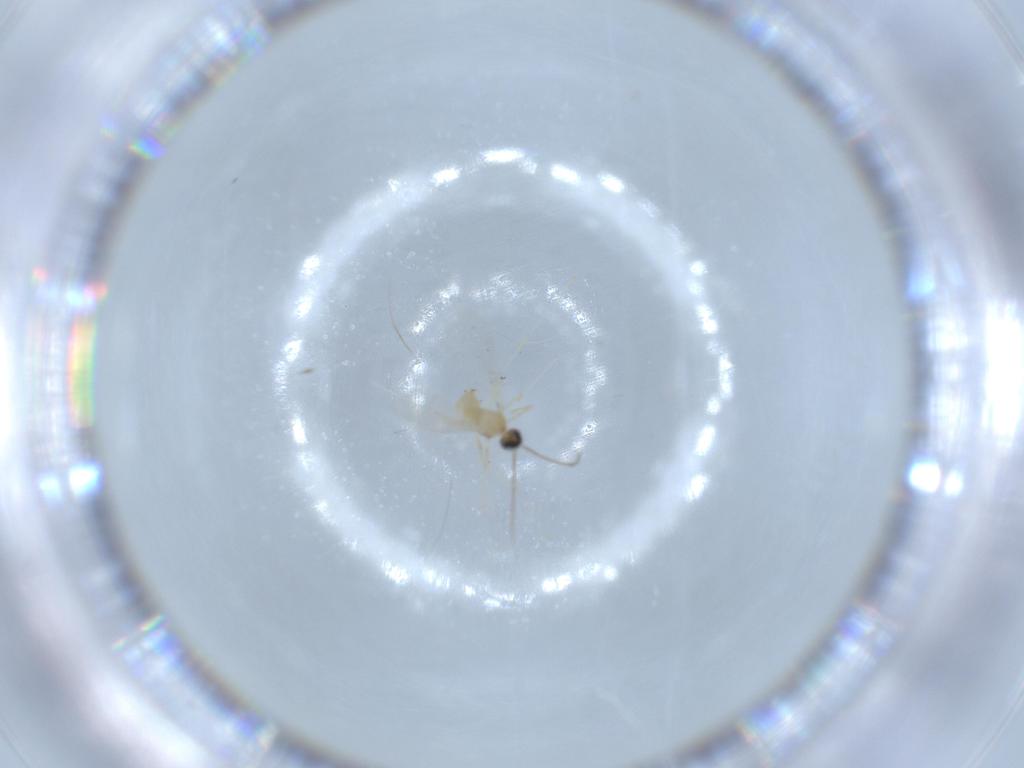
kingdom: Animalia
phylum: Arthropoda
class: Insecta
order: Diptera
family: Cecidomyiidae
